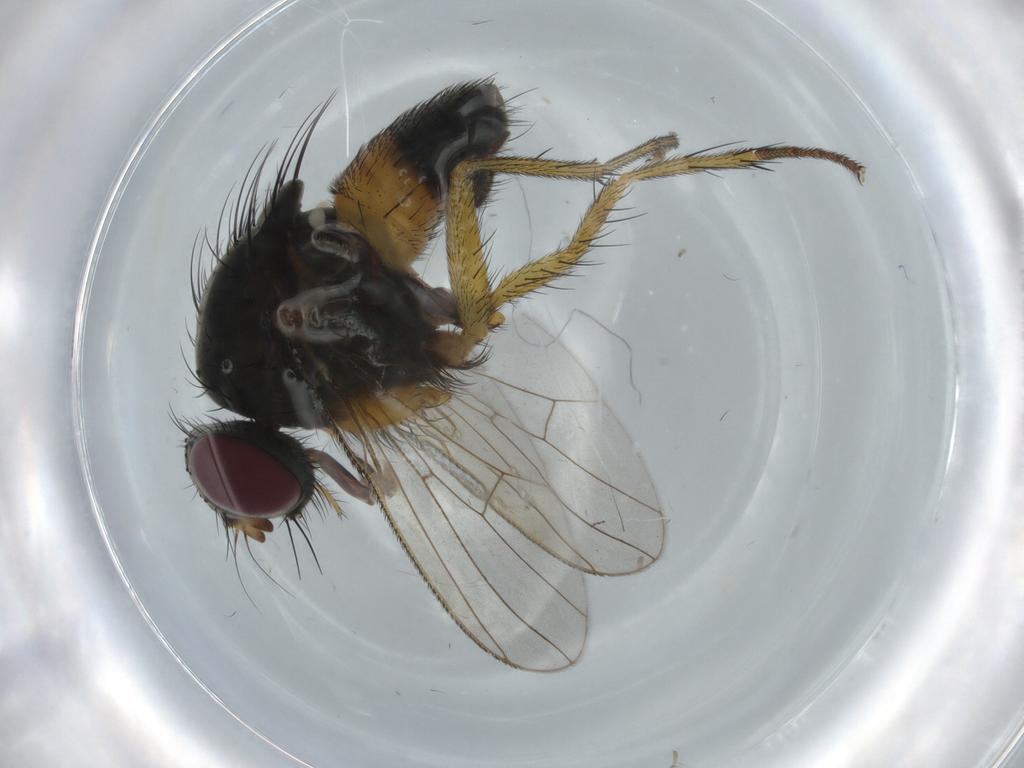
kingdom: Animalia
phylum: Arthropoda
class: Insecta
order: Diptera
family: Muscidae
